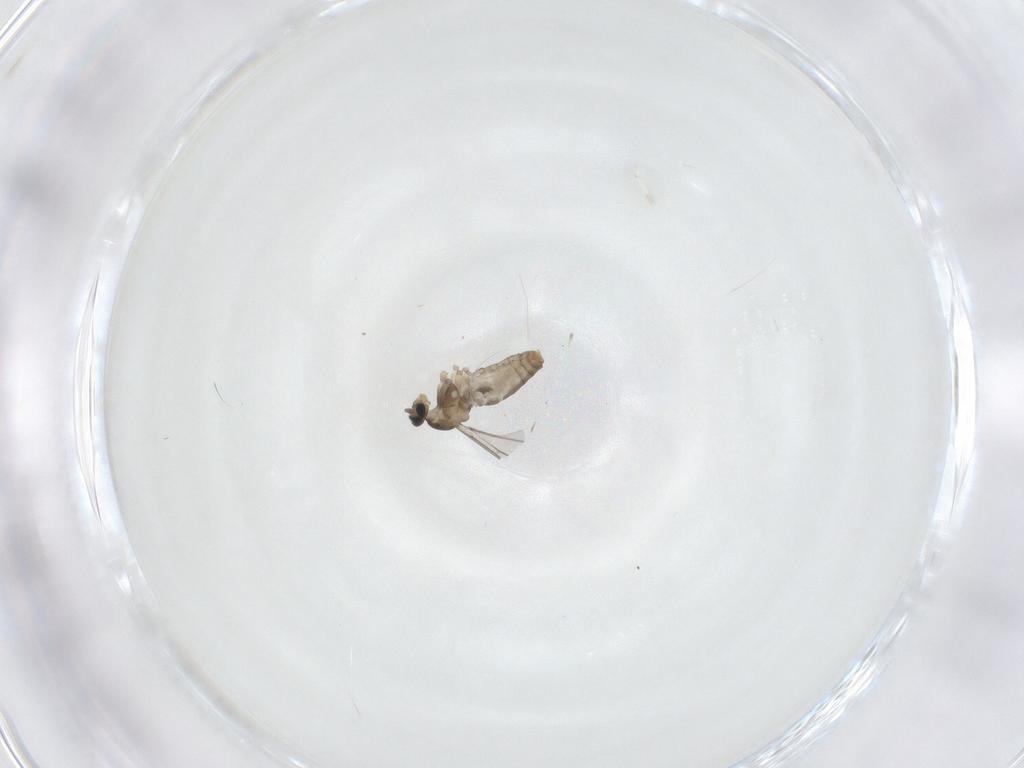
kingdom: Animalia
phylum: Arthropoda
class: Insecta
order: Diptera
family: Cecidomyiidae
